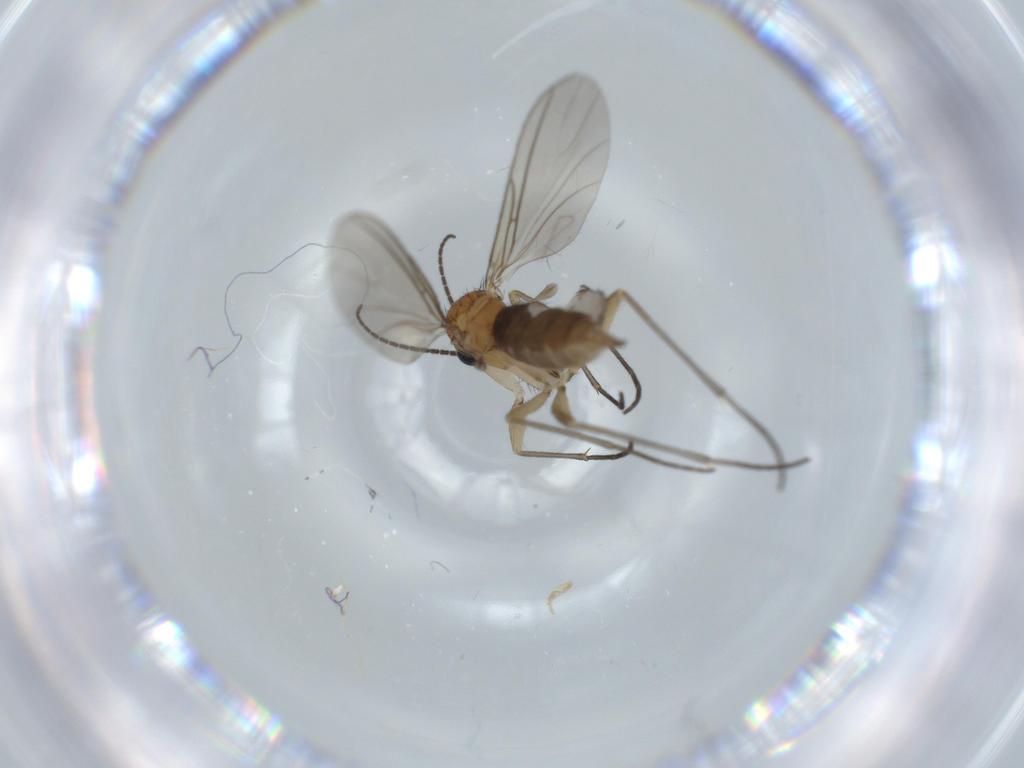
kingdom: Animalia
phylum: Arthropoda
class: Insecta
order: Diptera
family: Sciaridae
